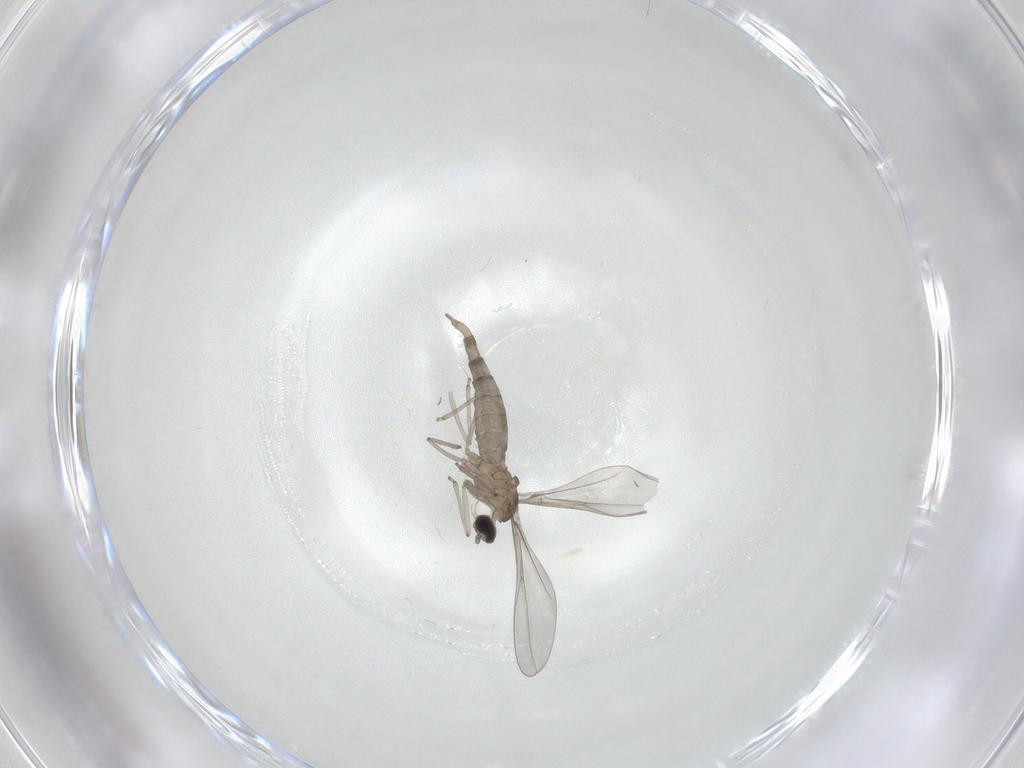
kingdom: Animalia
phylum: Arthropoda
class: Insecta
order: Diptera
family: Cecidomyiidae
